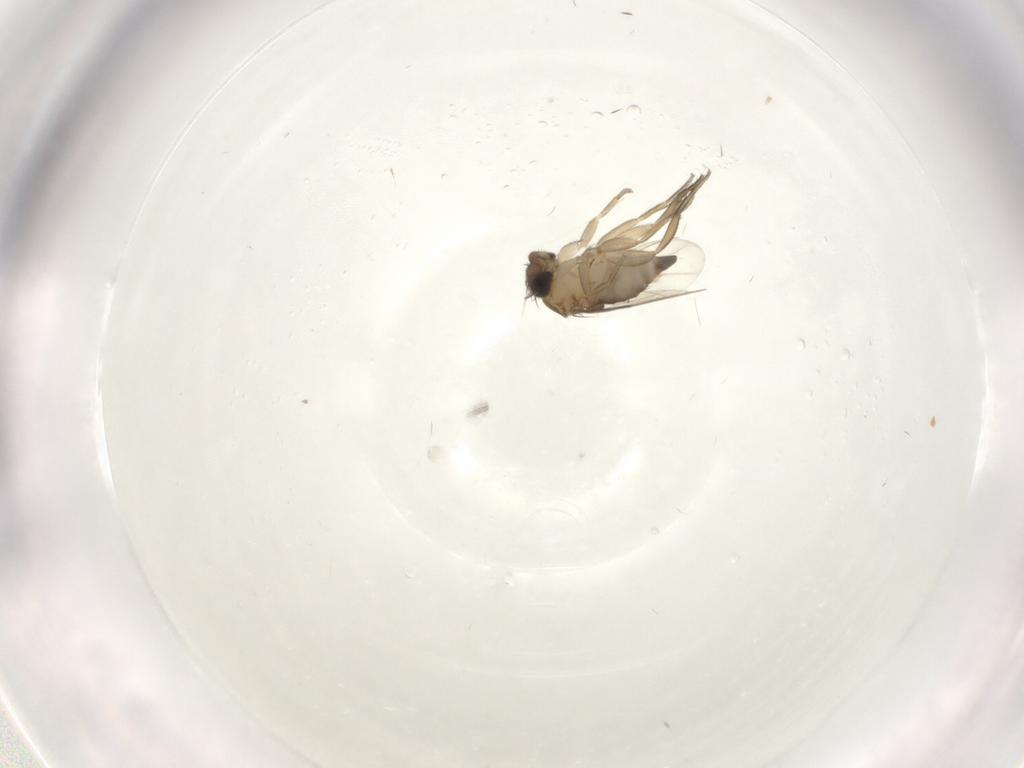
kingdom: Animalia
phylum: Arthropoda
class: Insecta
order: Diptera
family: Phoridae
